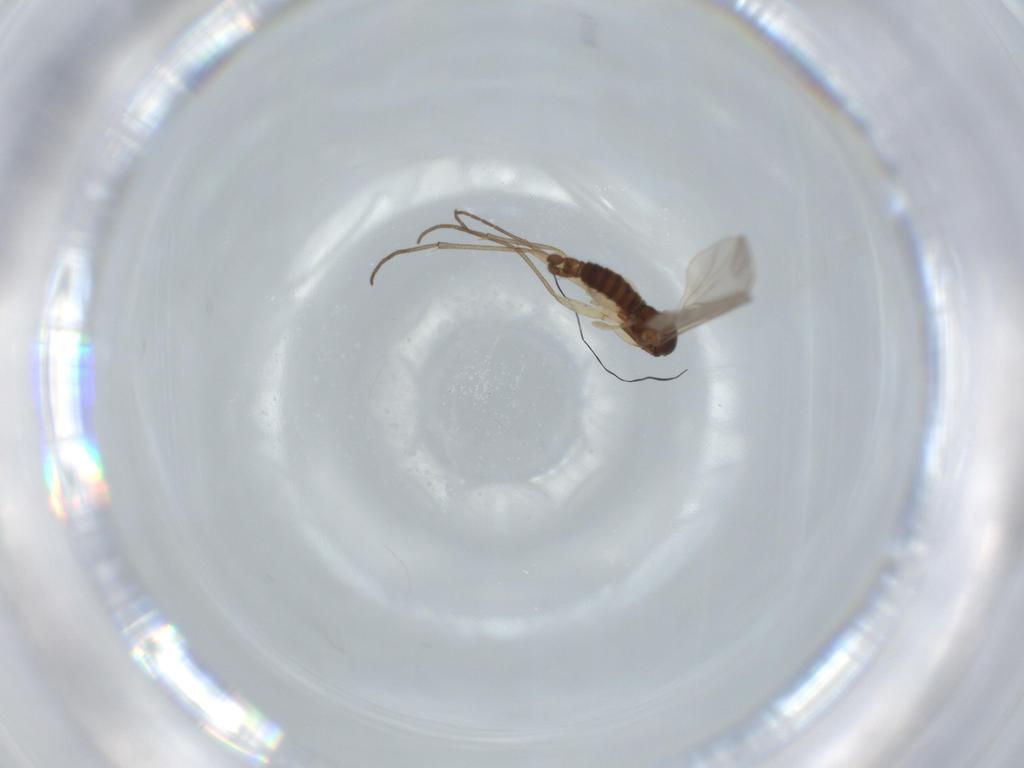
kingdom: Animalia
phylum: Arthropoda
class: Insecta
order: Diptera
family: Sciaridae
